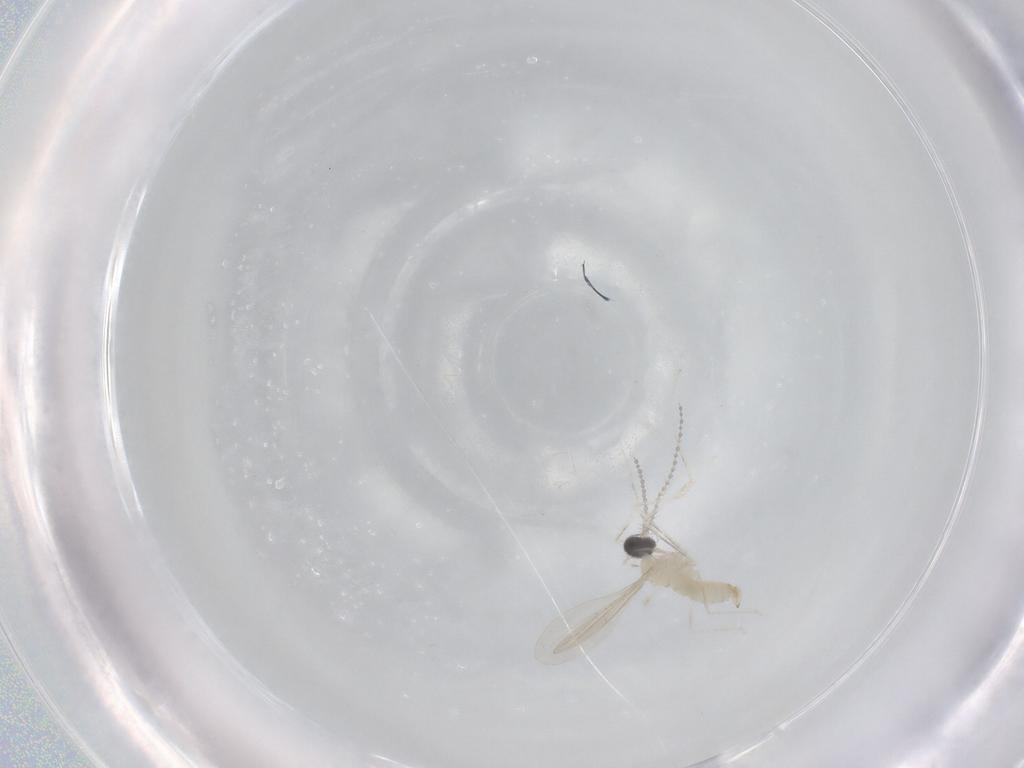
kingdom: Animalia
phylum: Arthropoda
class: Insecta
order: Diptera
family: Chironomidae
